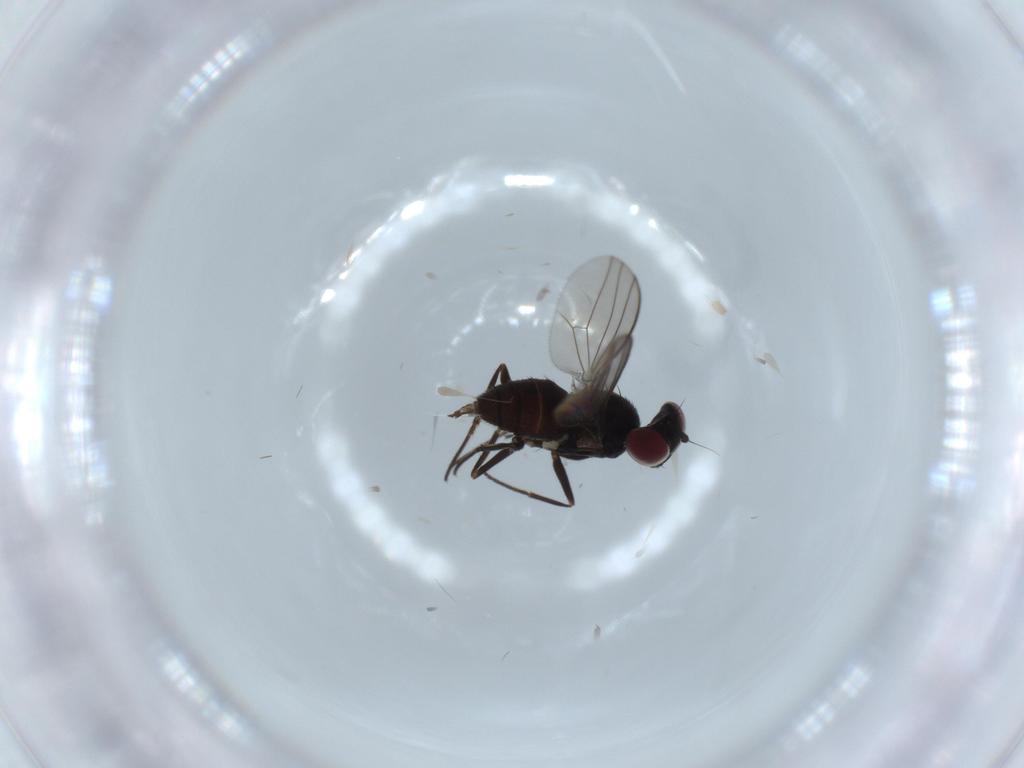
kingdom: Animalia
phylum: Arthropoda
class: Insecta
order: Diptera
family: Dolichopodidae
